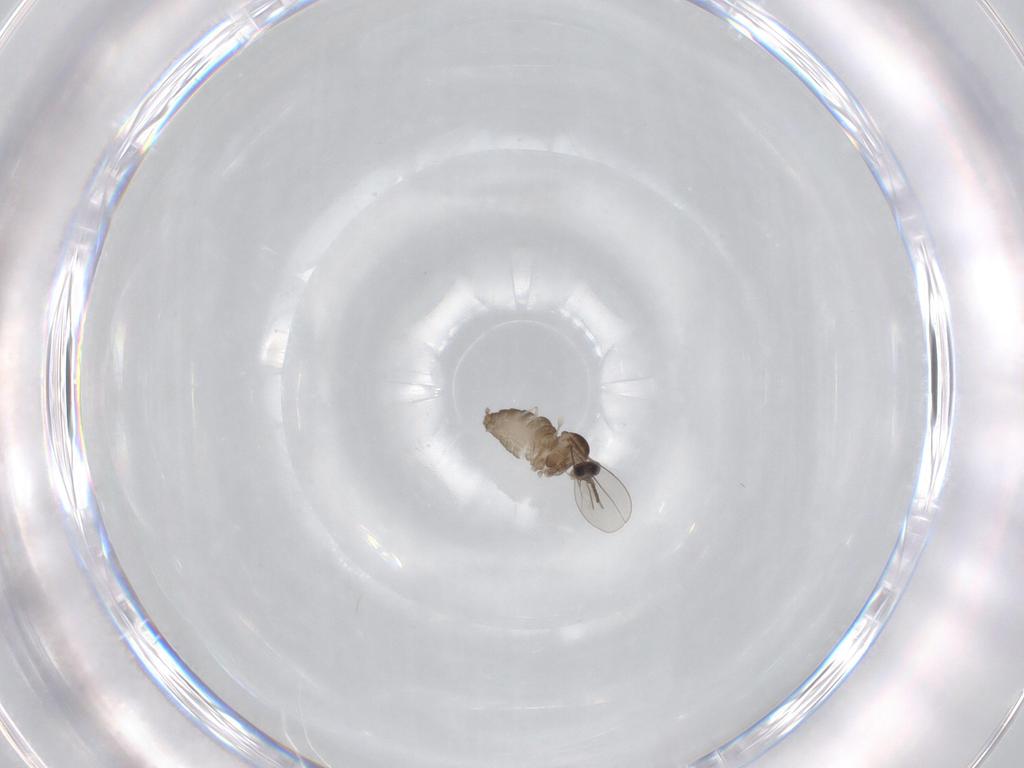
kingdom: Animalia
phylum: Arthropoda
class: Insecta
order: Diptera
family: Cecidomyiidae
